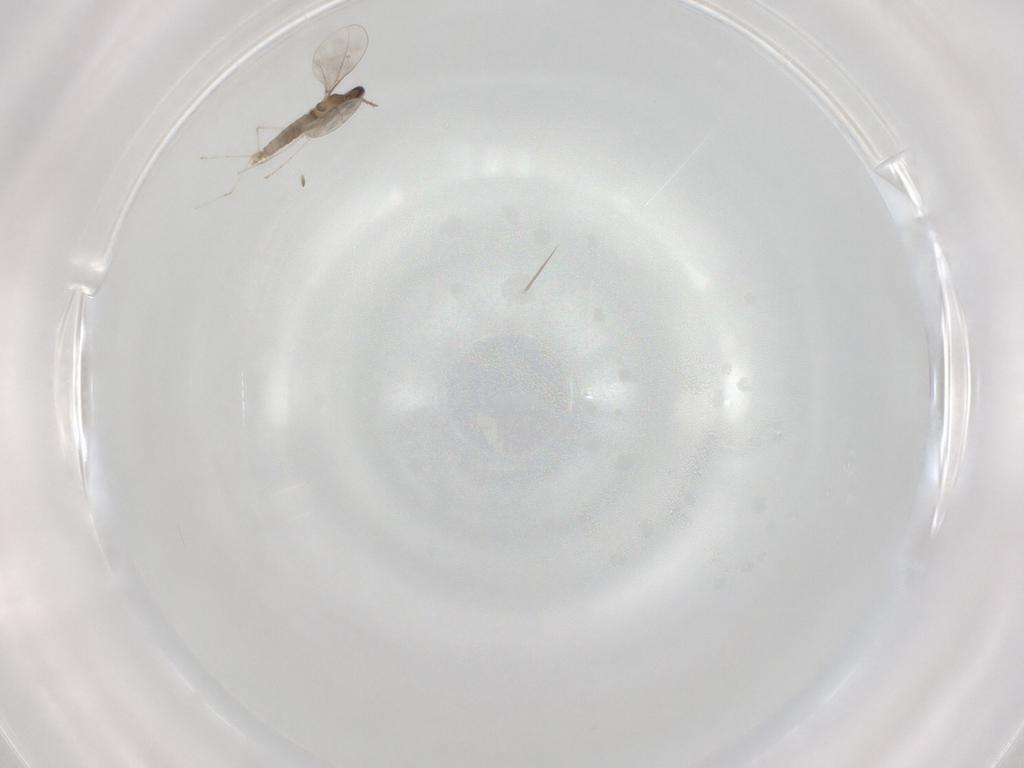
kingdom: Animalia
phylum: Arthropoda
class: Insecta
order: Diptera
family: Cecidomyiidae
